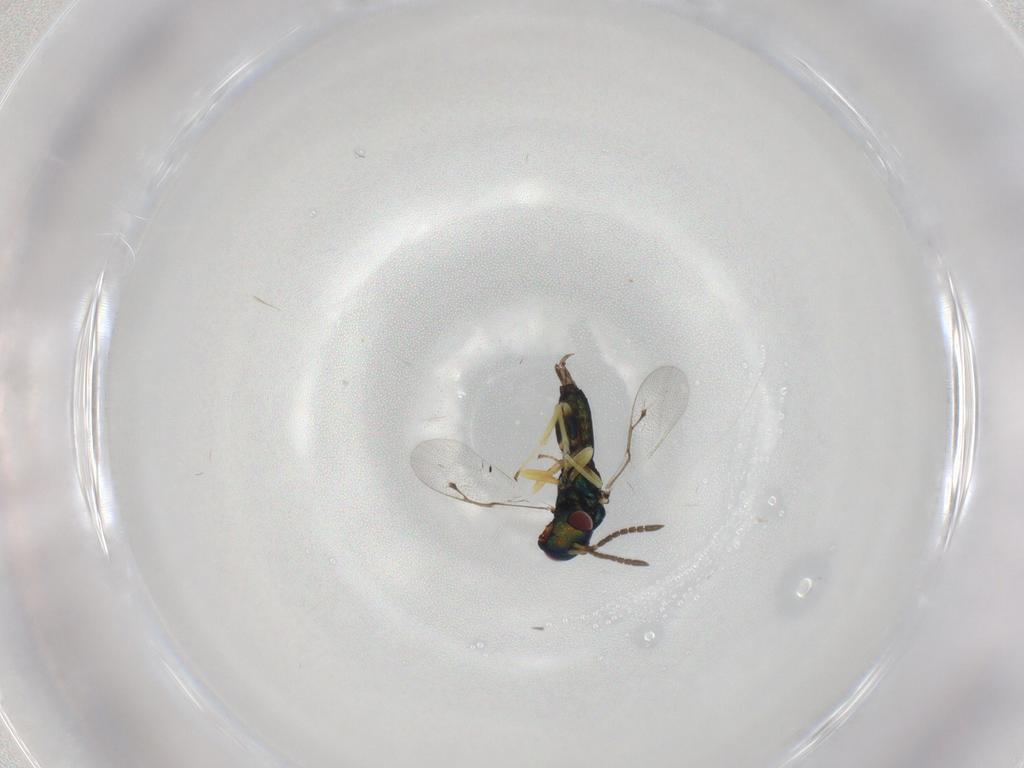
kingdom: Animalia
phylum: Arthropoda
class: Insecta
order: Hymenoptera
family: Pteromalidae
